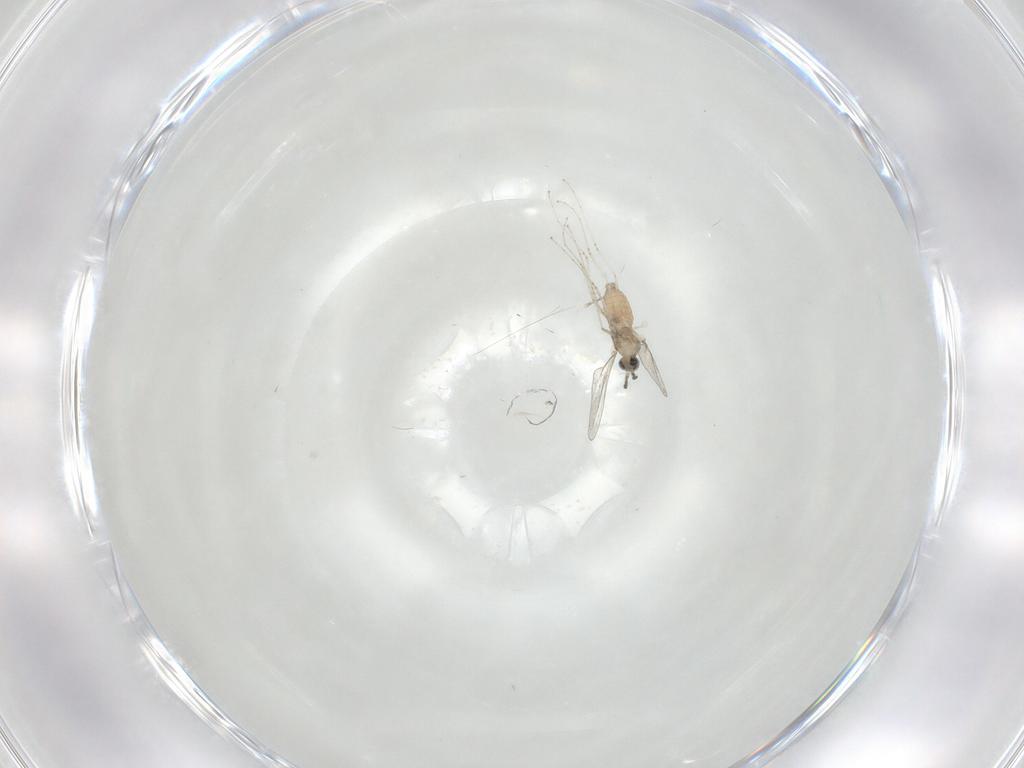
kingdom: Animalia
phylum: Arthropoda
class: Insecta
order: Diptera
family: Cecidomyiidae
